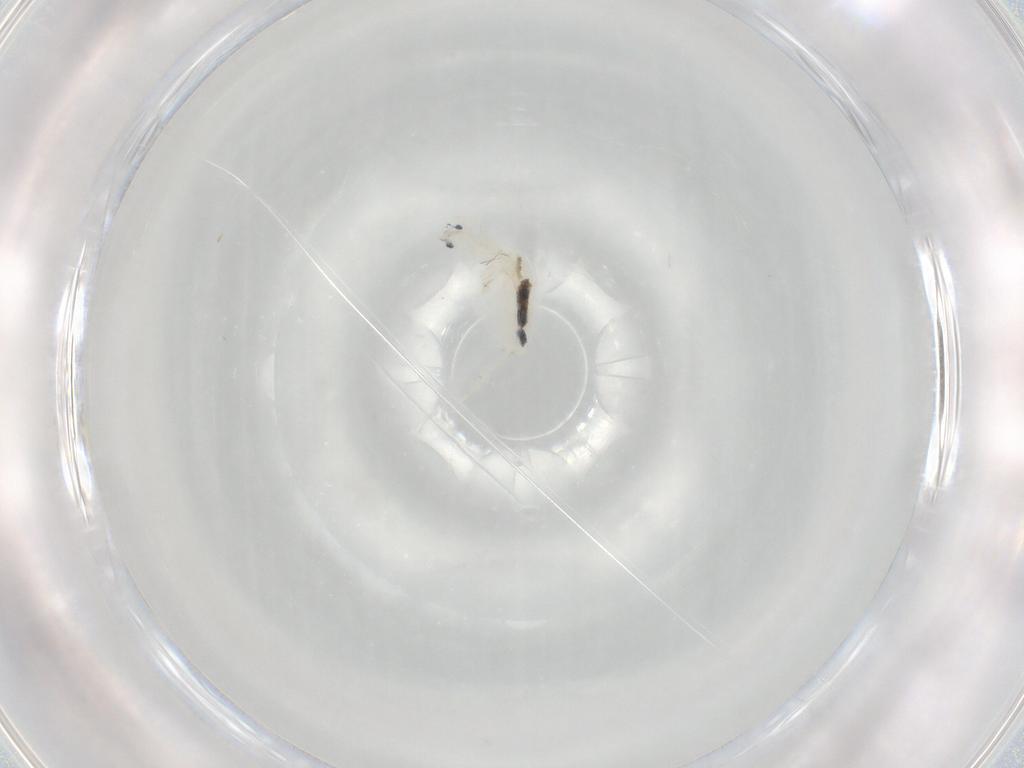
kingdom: Animalia
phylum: Arthropoda
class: Collembola
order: Entomobryomorpha
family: Entomobryidae
